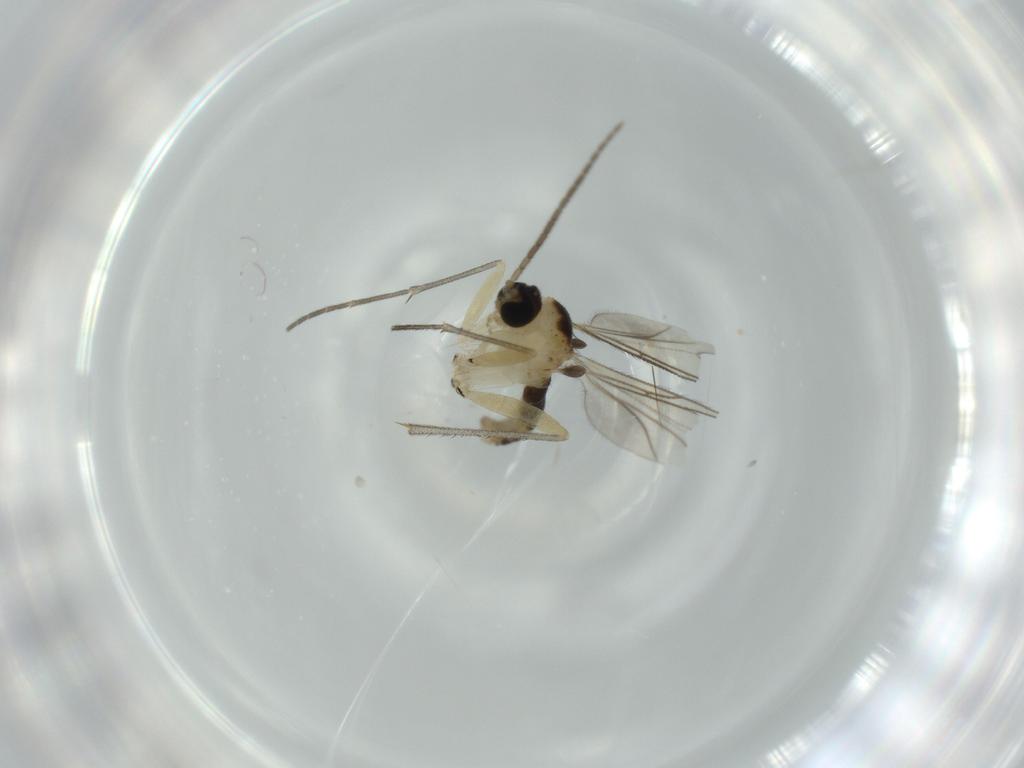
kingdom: Animalia
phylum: Arthropoda
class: Insecta
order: Diptera
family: Sciaridae
